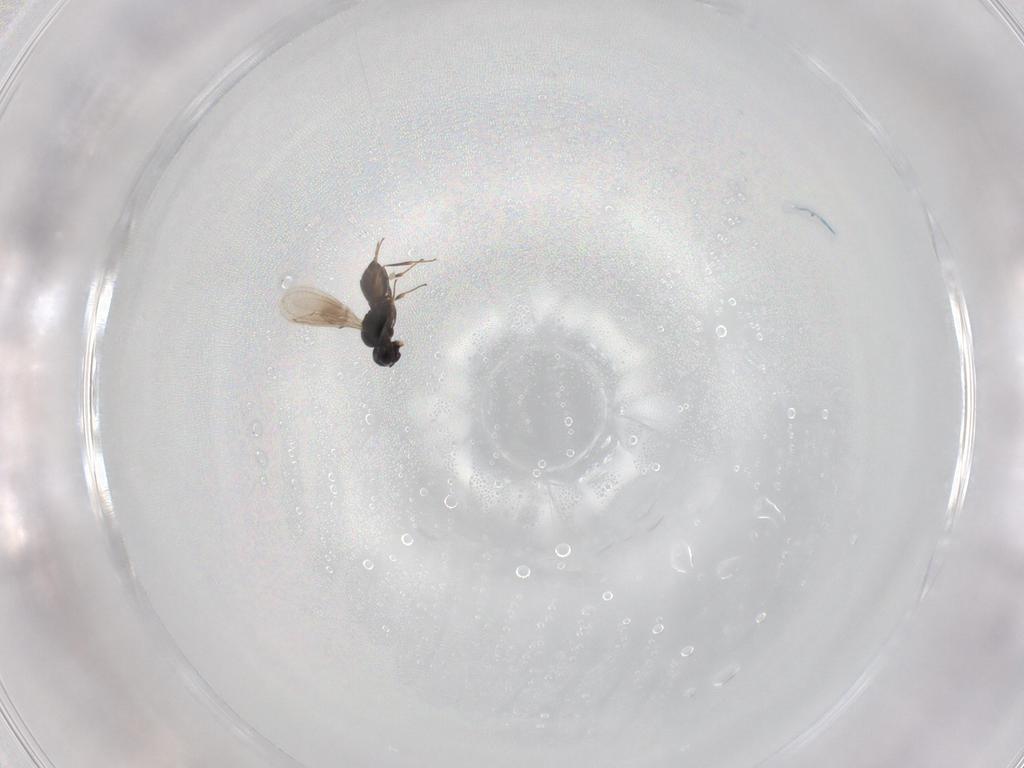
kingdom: Animalia
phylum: Arthropoda
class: Insecta
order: Hymenoptera
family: Scelionidae
